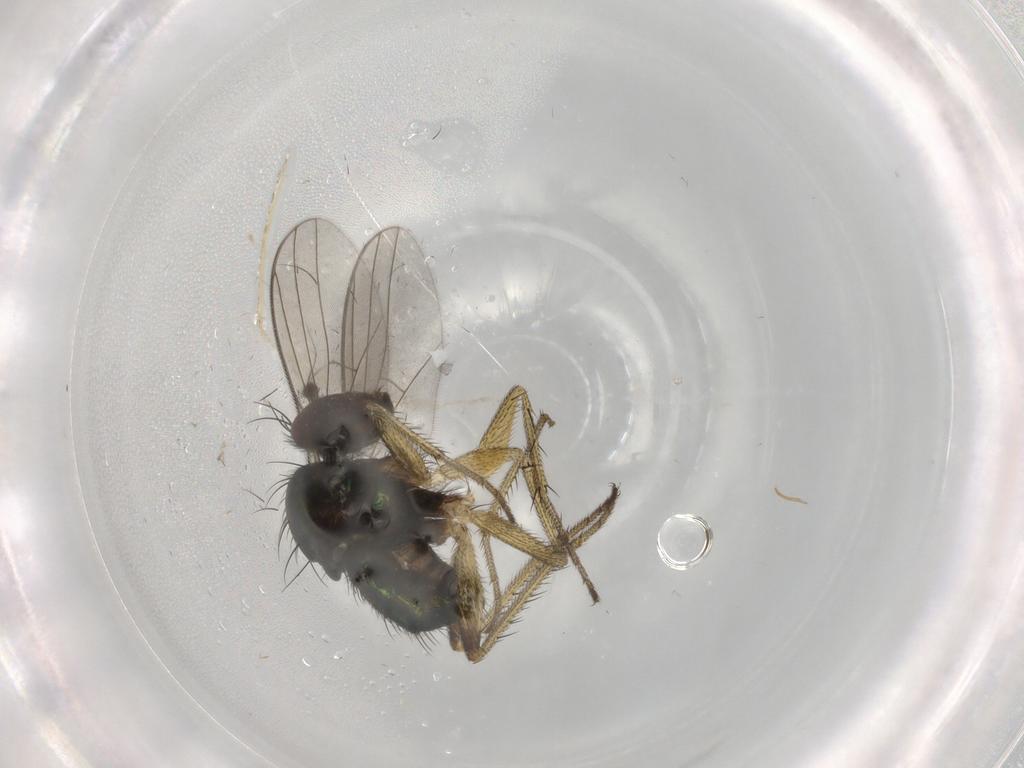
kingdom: Animalia
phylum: Arthropoda
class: Insecta
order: Diptera
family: Dolichopodidae
